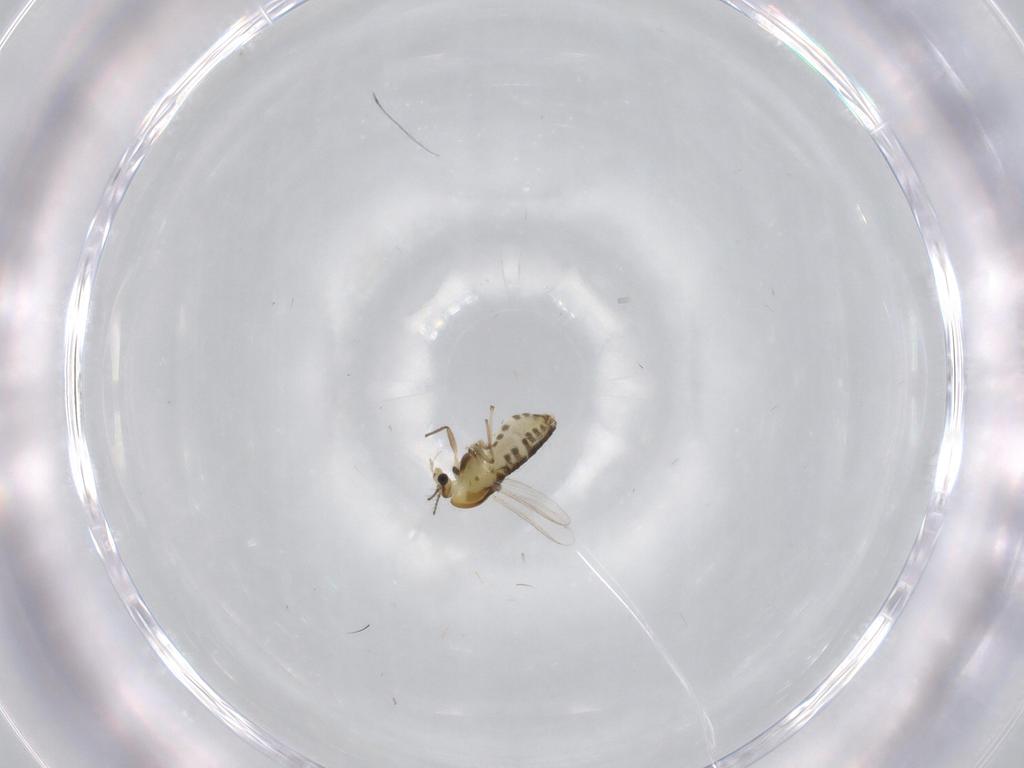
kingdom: Animalia
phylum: Arthropoda
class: Insecta
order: Diptera
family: Chironomidae
